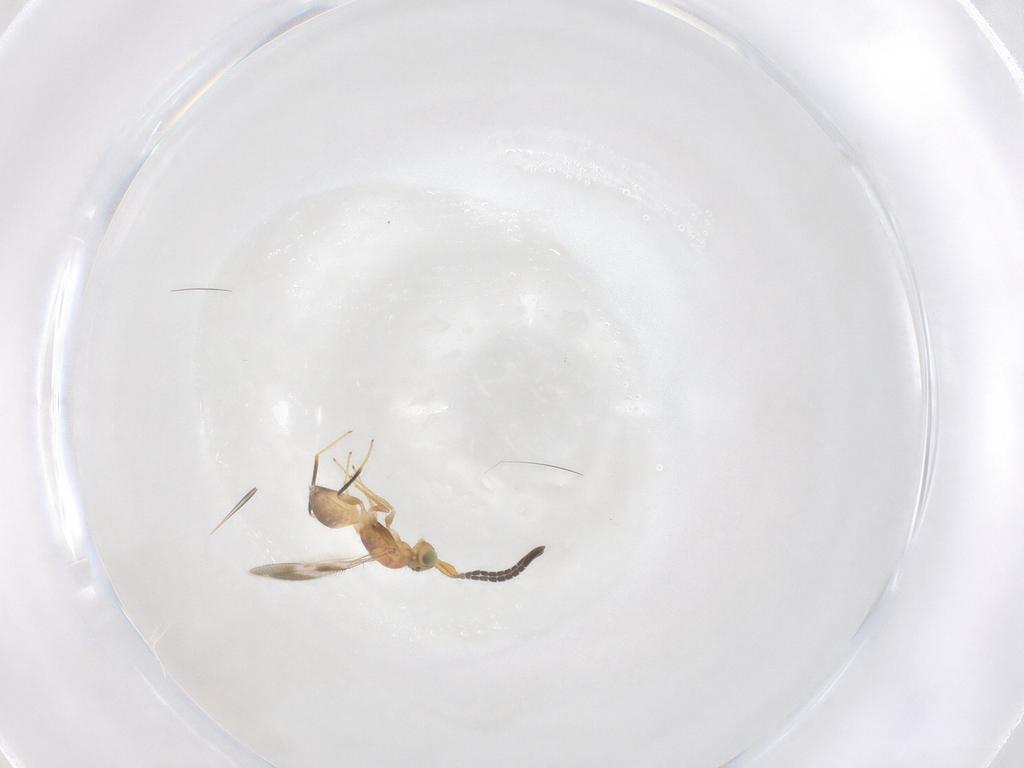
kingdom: Animalia
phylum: Arthropoda
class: Insecta
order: Hymenoptera
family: Mymaridae
